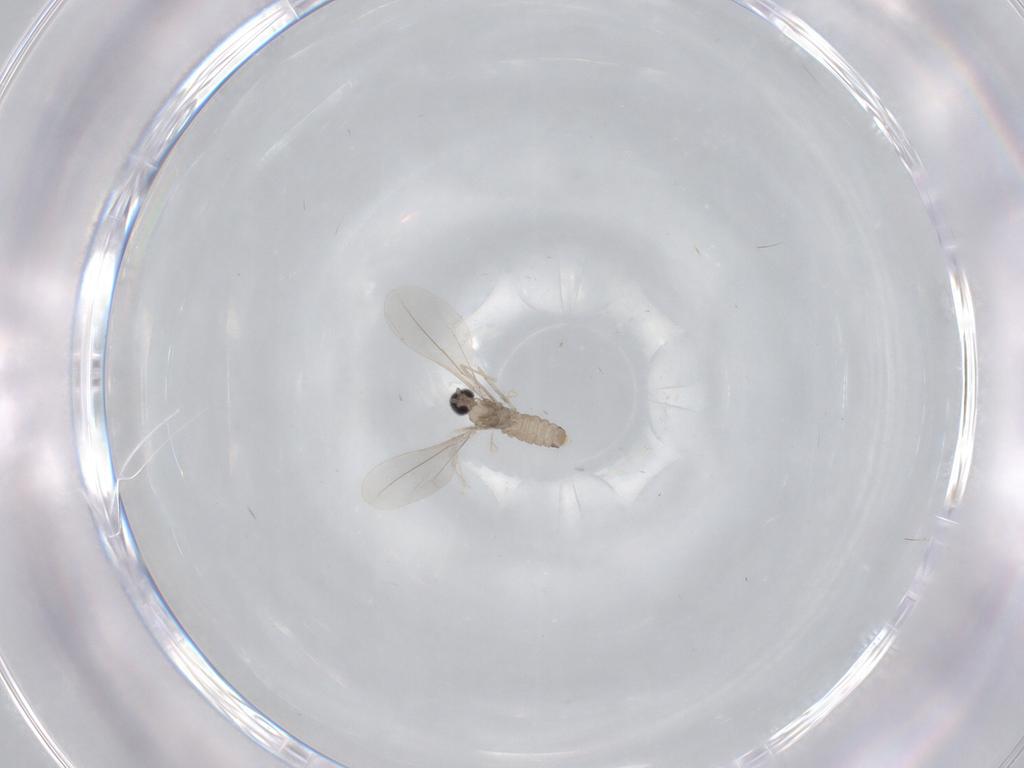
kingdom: Animalia
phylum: Arthropoda
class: Insecta
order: Diptera
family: Cecidomyiidae
